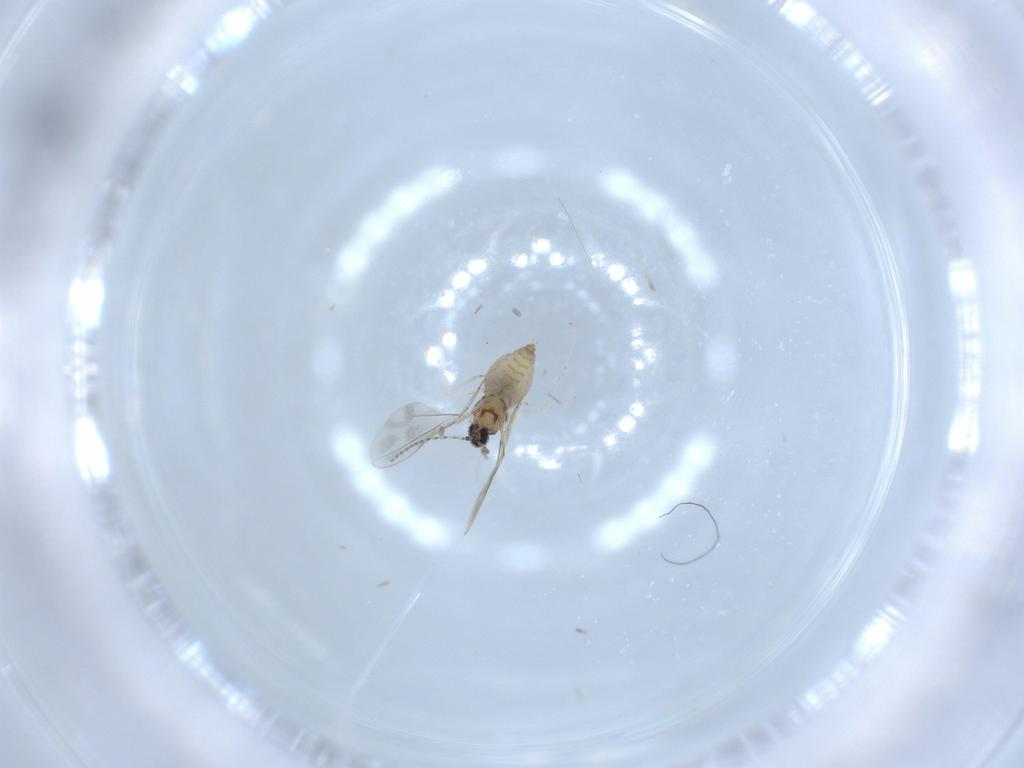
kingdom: Animalia
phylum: Arthropoda
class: Insecta
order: Diptera
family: Cecidomyiidae
